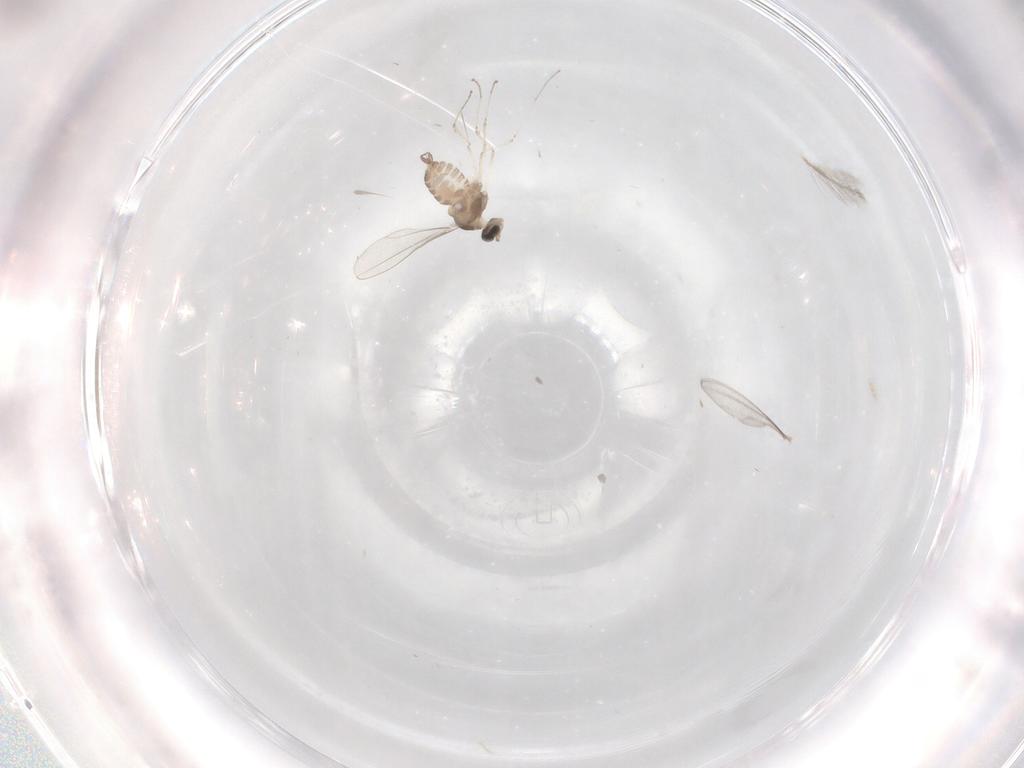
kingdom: Animalia
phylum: Arthropoda
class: Insecta
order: Diptera
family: Cecidomyiidae
